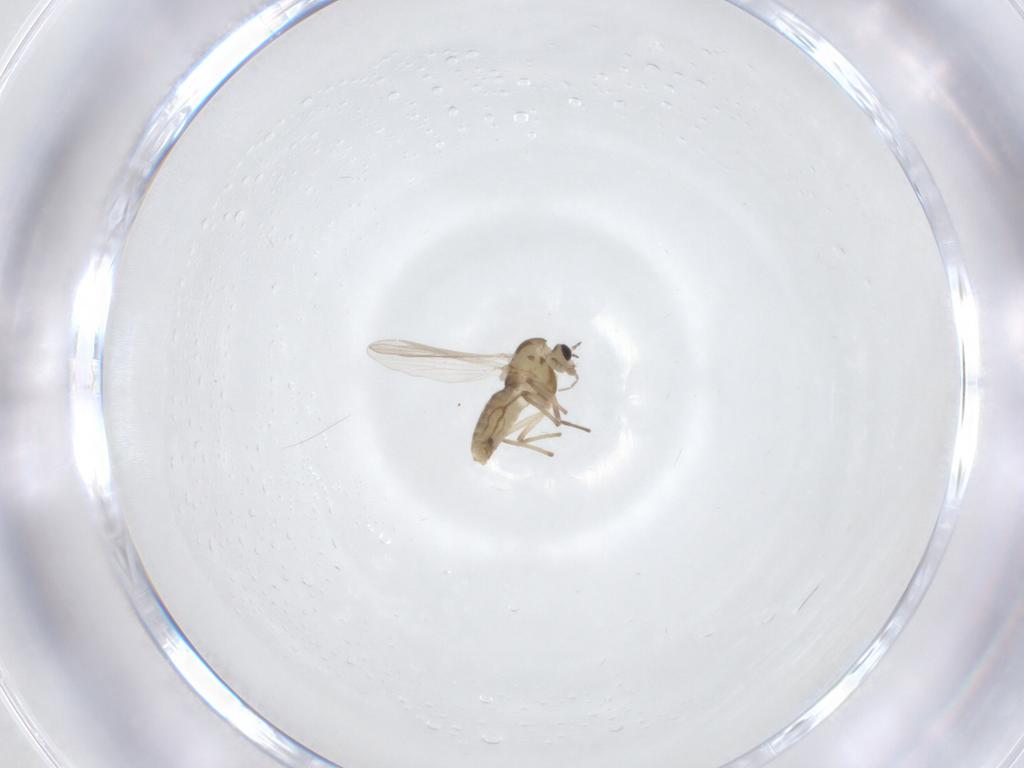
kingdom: Animalia
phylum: Arthropoda
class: Insecta
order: Diptera
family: Chironomidae
